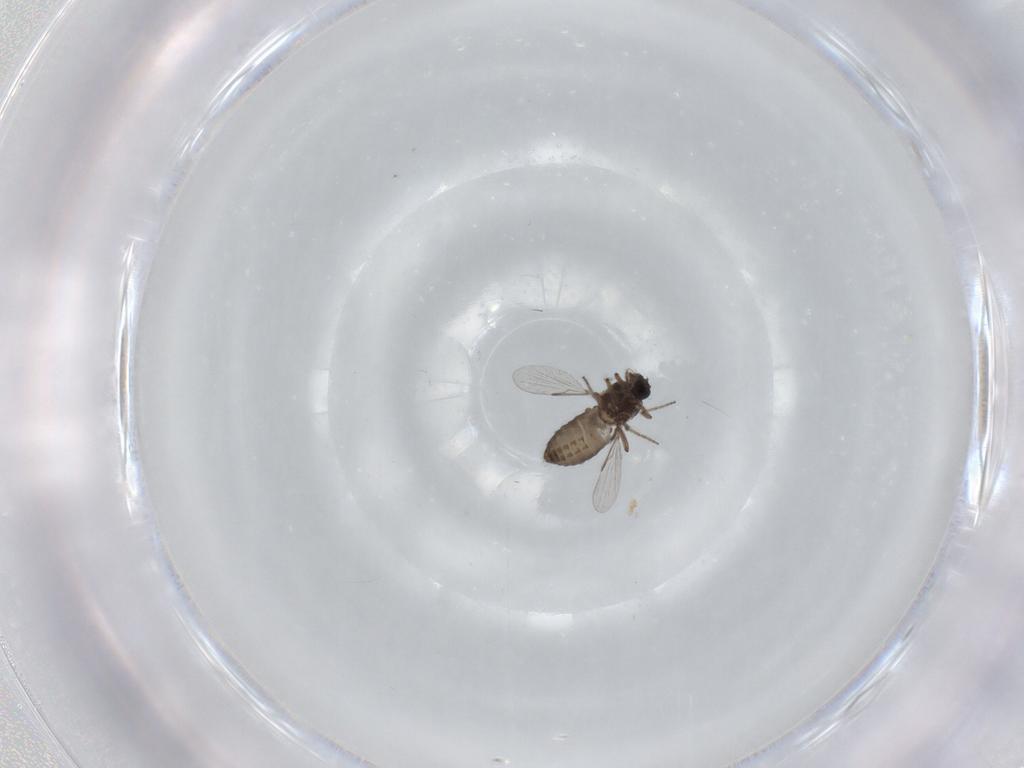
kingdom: Animalia
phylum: Arthropoda
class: Insecta
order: Diptera
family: Ceratopogonidae
